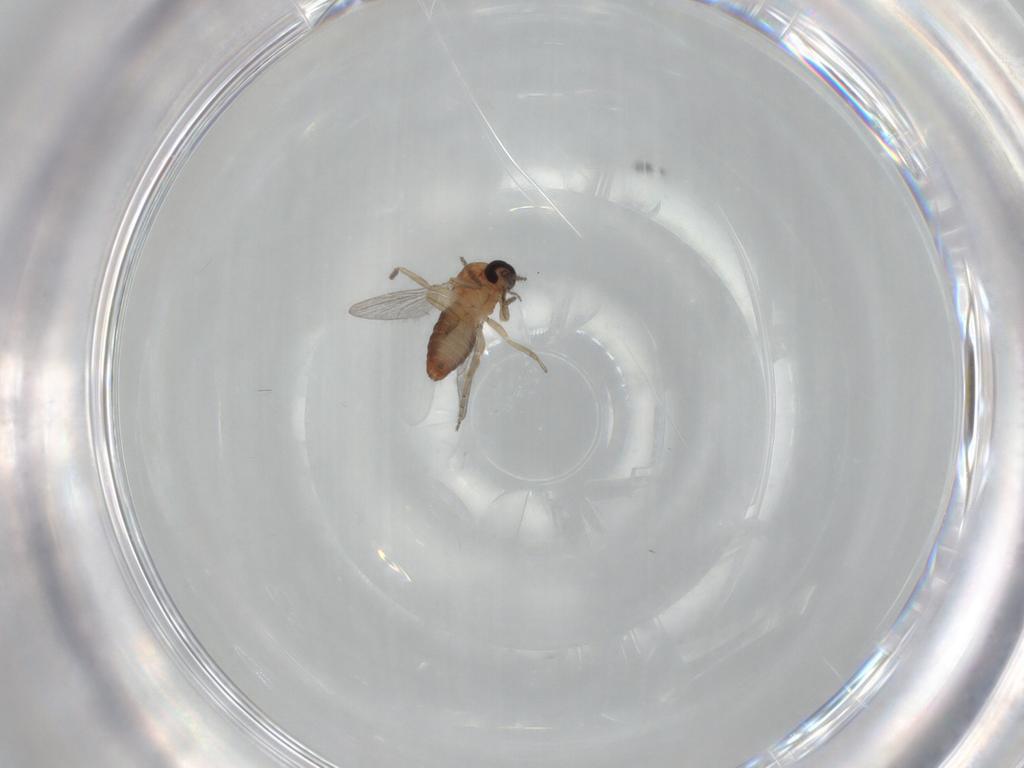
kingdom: Animalia
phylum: Arthropoda
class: Insecta
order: Diptera
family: Ceratopogonidae
